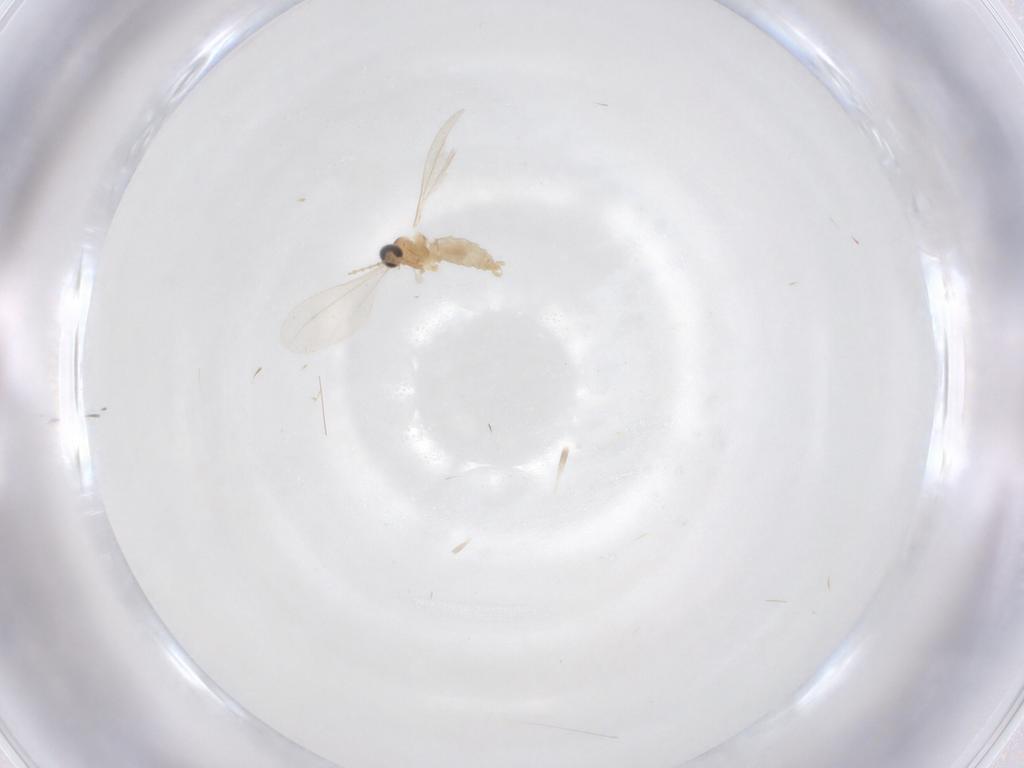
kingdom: Animalia
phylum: Arthropoda
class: Insecta
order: Diptera
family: Cecidomyiidae
